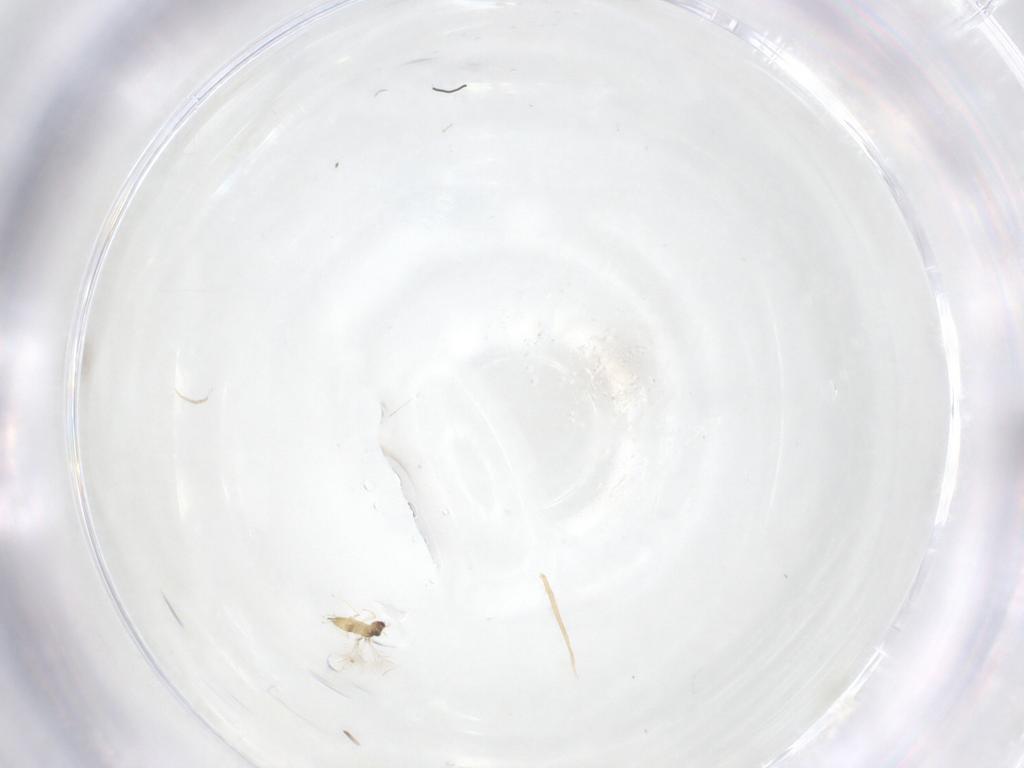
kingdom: Animalia
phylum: Arthropoda
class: Insecta
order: Hymenoptera
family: Mymaridae
